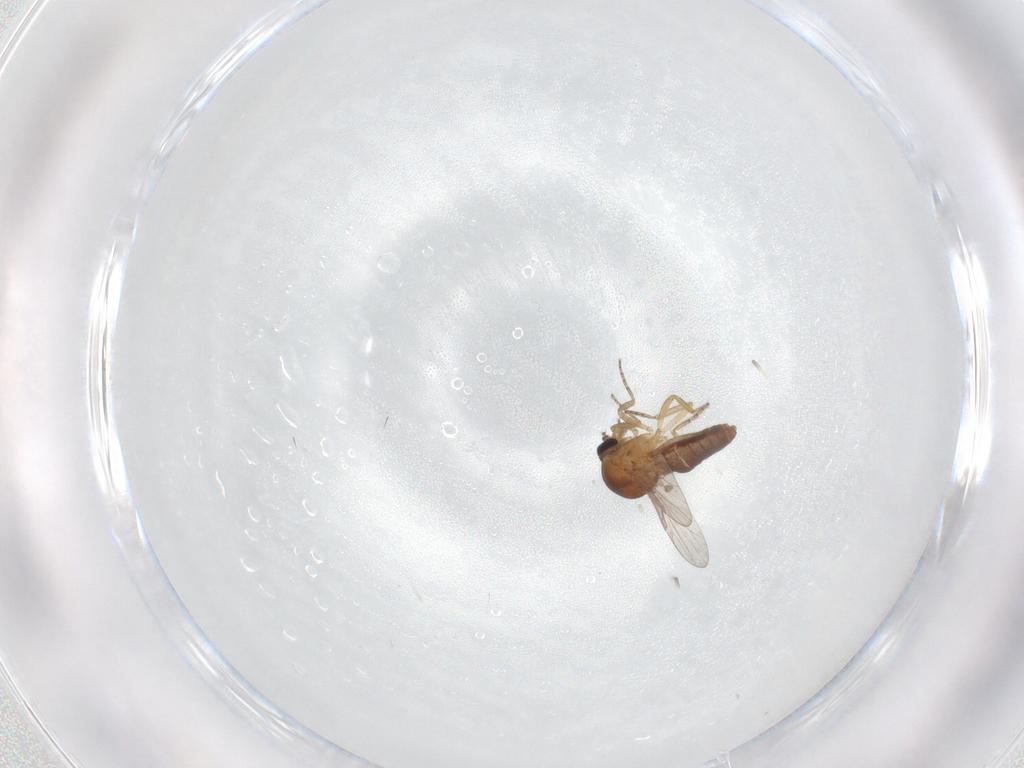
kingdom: Animalia
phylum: Arthropoda
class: Insecta
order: Diptera
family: Ceratopogonidae
